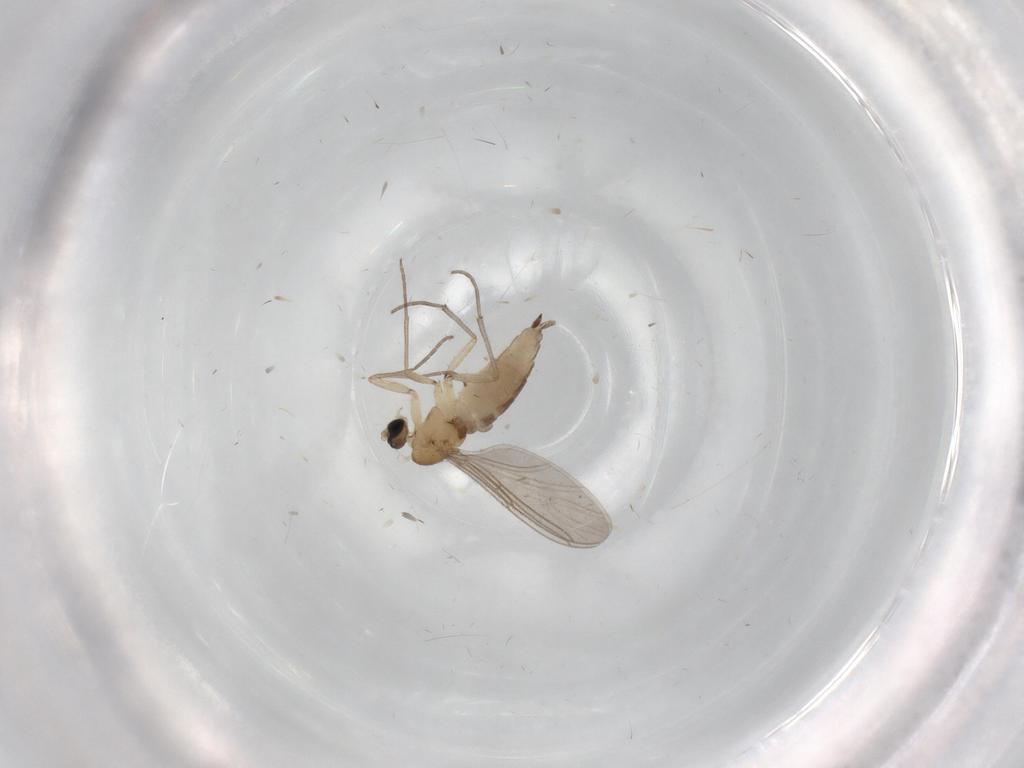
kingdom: Animalia
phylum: Arthropoda
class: Insecta
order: Diptera
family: Sciaridae
